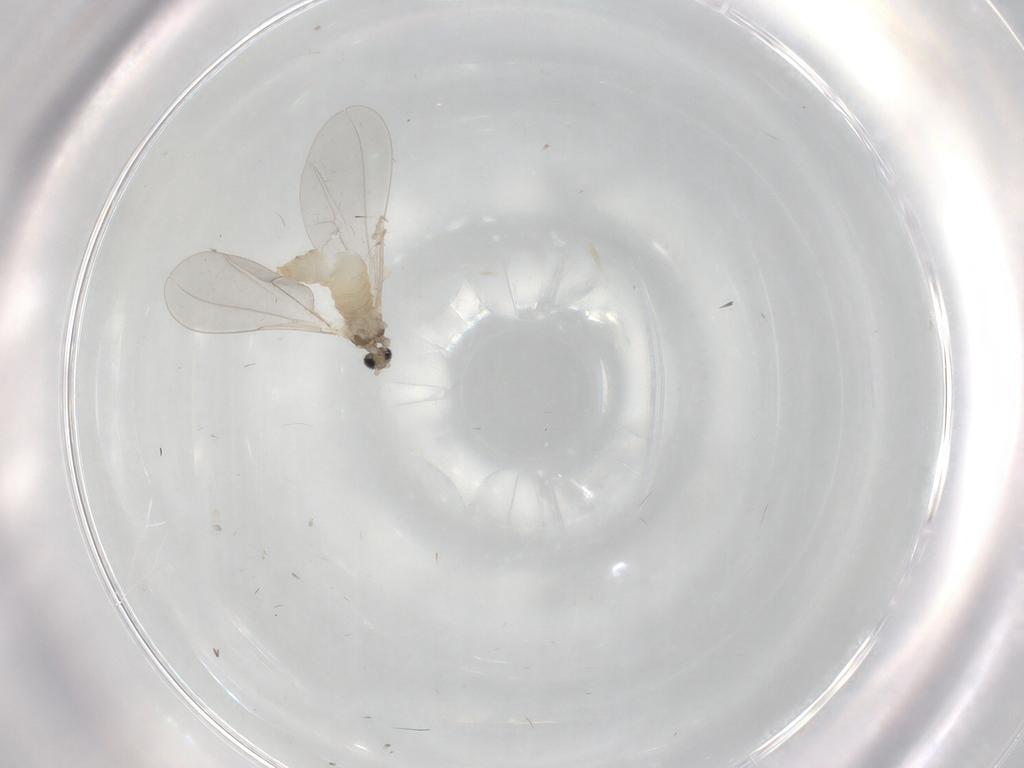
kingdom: Animalia
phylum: Arthropoda
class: Insecta
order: Diptera
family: Cecidomyiidae
